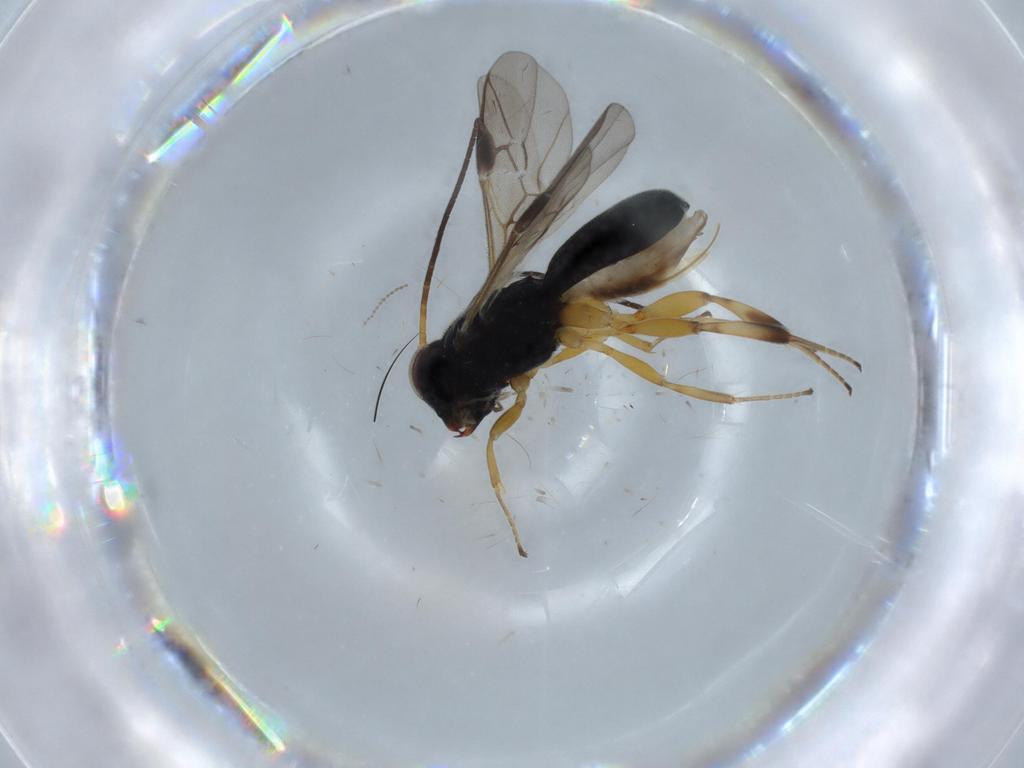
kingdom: Animalia
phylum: Arthropoda
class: Insecta
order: Hymenoptera
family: Braconidae
